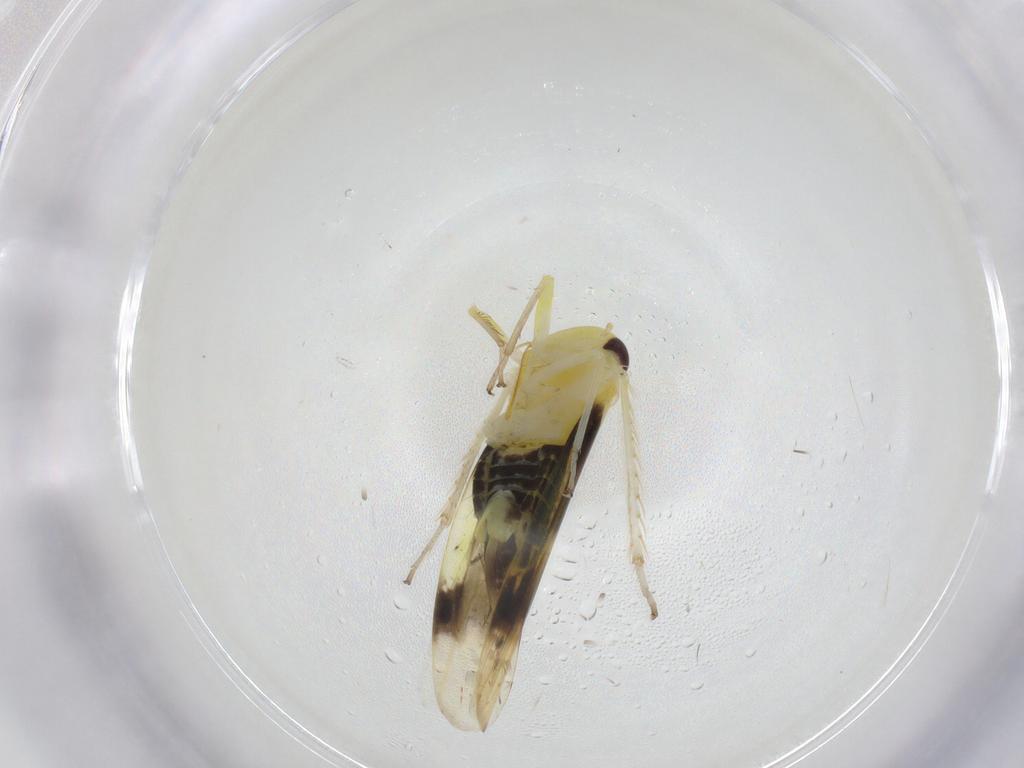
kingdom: Animalia
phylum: Arthropoda
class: Insecta
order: Hemiptera
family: Cicadellidae
